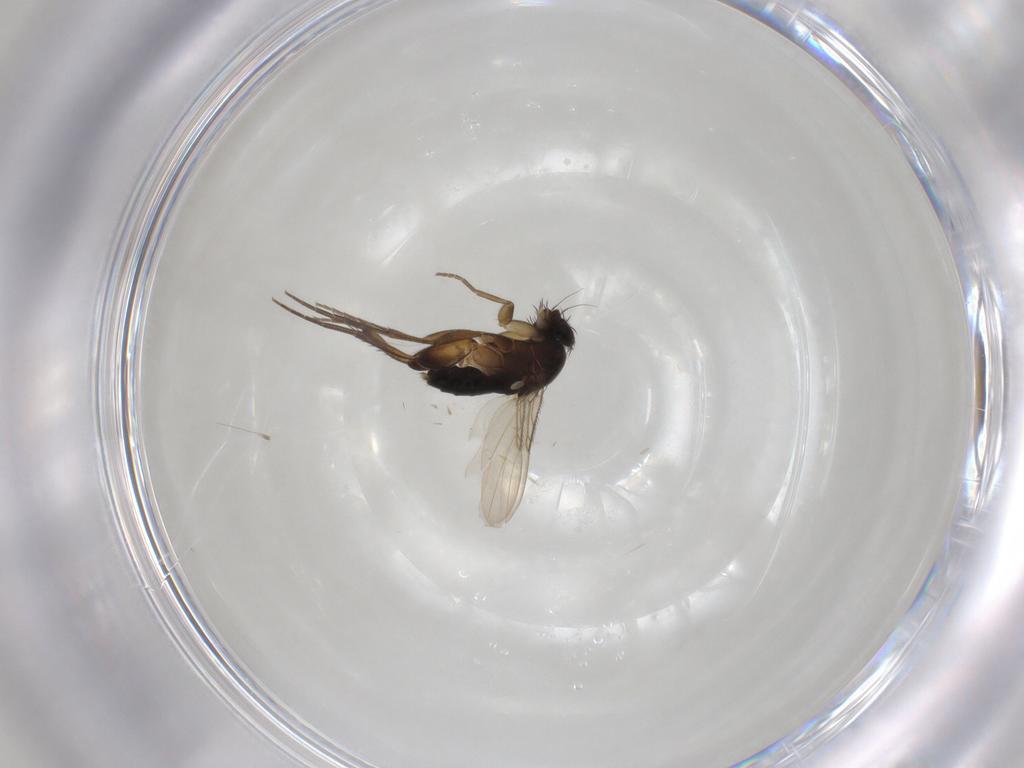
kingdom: Animalia
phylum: Arthropoda
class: Insecta
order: Diptera
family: Phoridae
